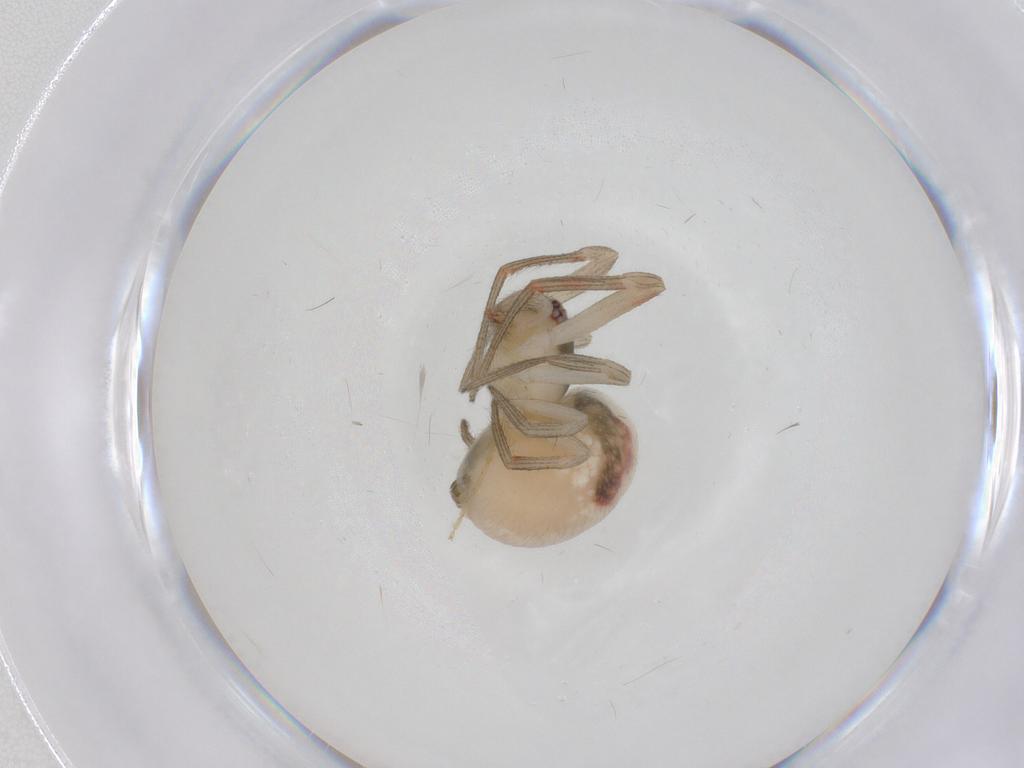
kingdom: Animalia
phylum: Arthropoda
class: Arachnida
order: Araneae
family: Theridiidae
